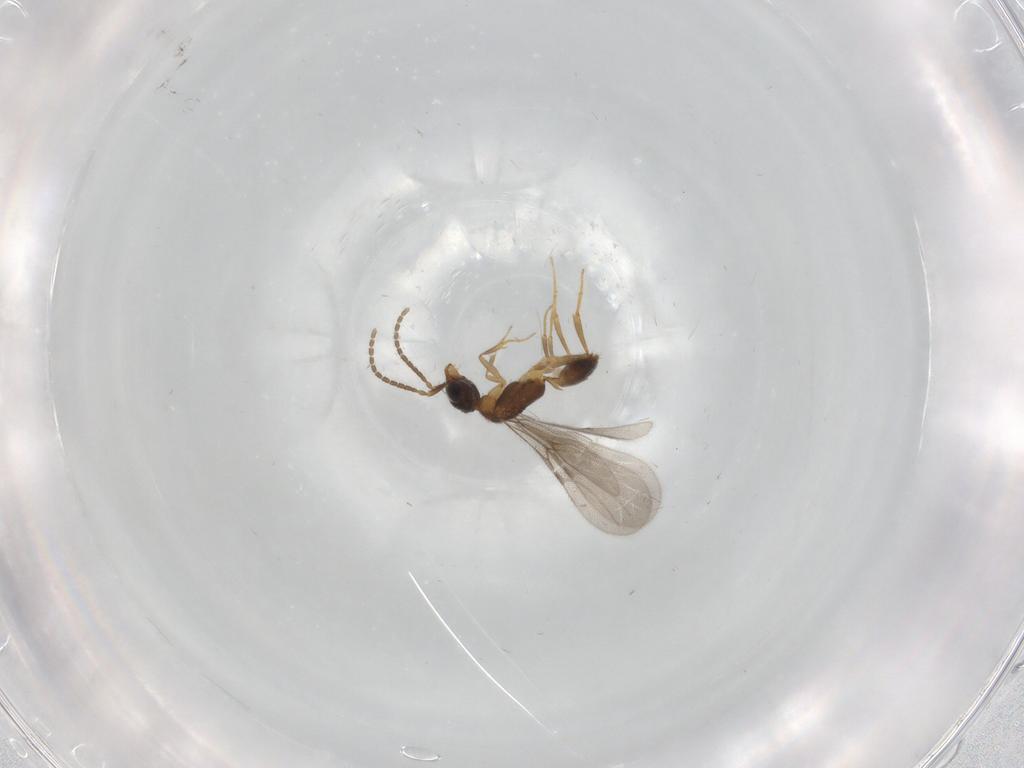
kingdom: Animalia
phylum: Arthropoda
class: Insecta
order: Hymenoptera
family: Bethylidae
